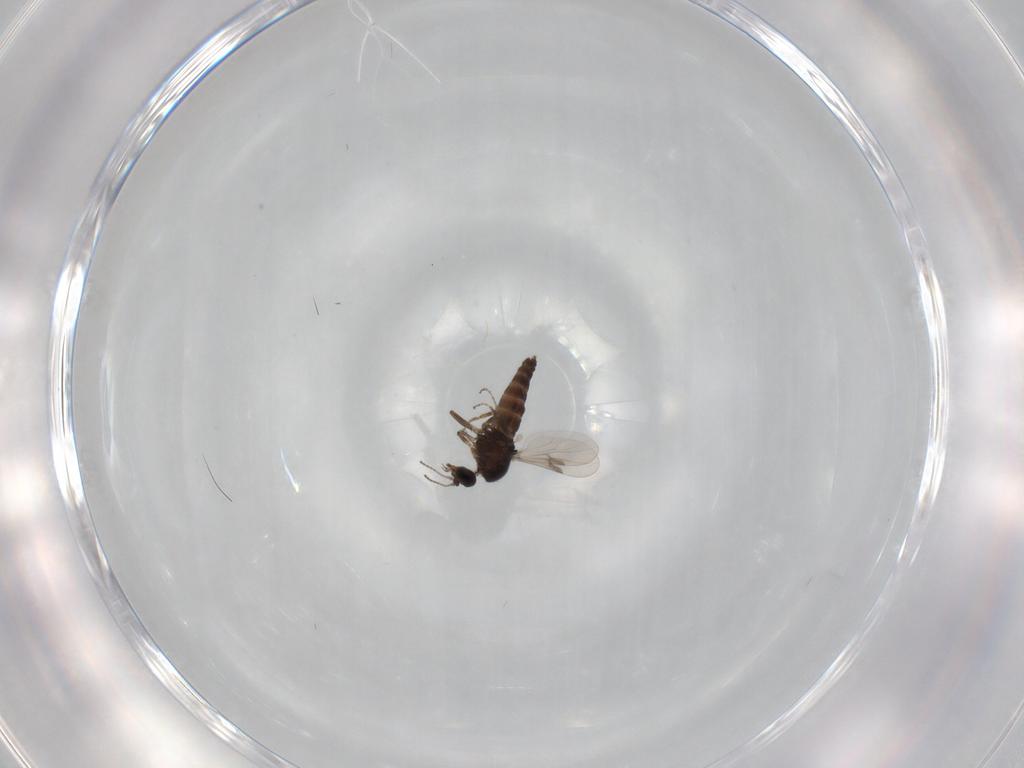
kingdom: Animalia
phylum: Arthropoda
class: Insecta
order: Diptera
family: Ceratopogonidae
